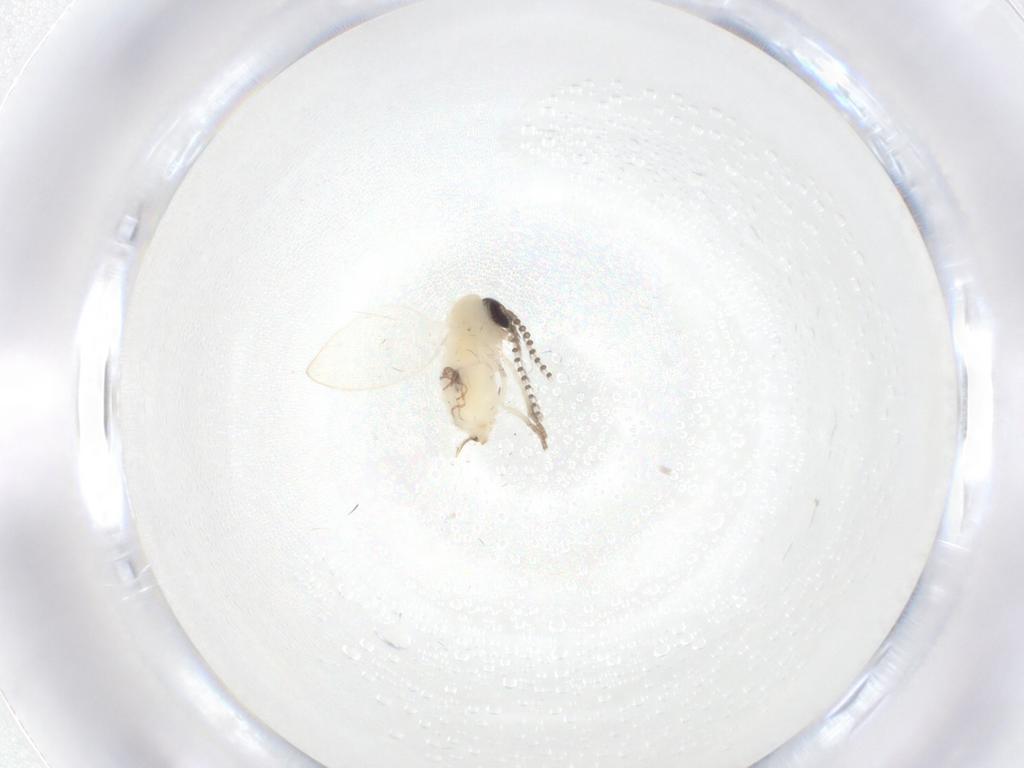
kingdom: Animalia
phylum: Arthropoda
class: Insecta
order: Diptera
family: Psychodidae
